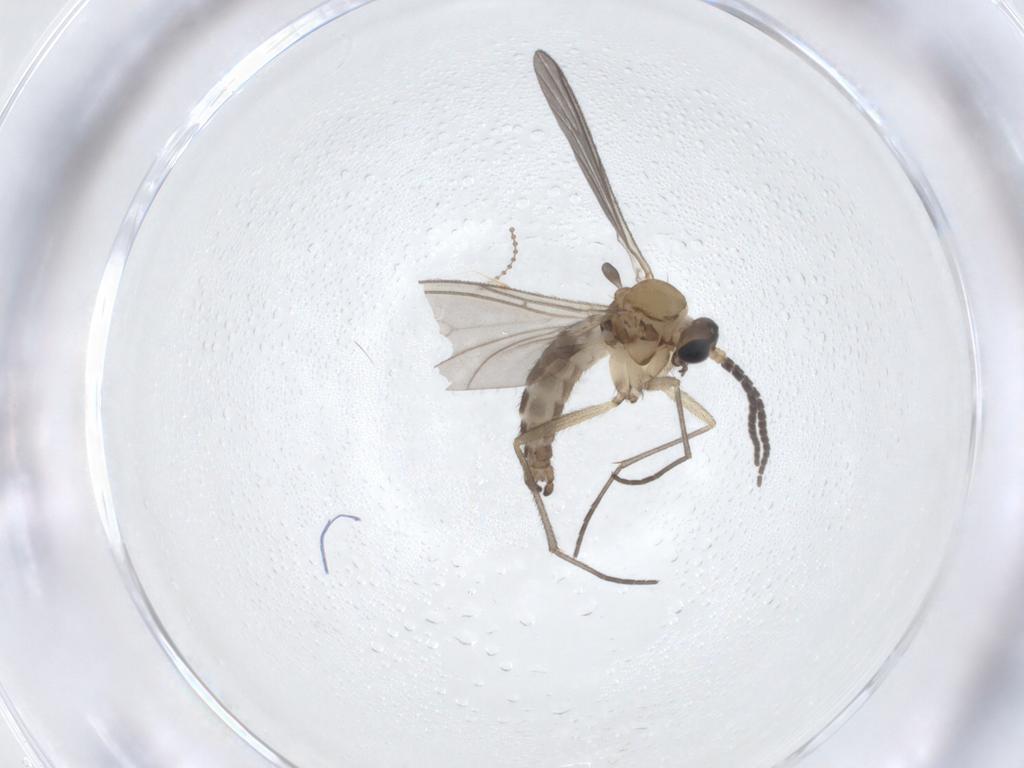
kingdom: Animalia
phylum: Arthropoda
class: Insecta
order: Diptera
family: Sciaridae
